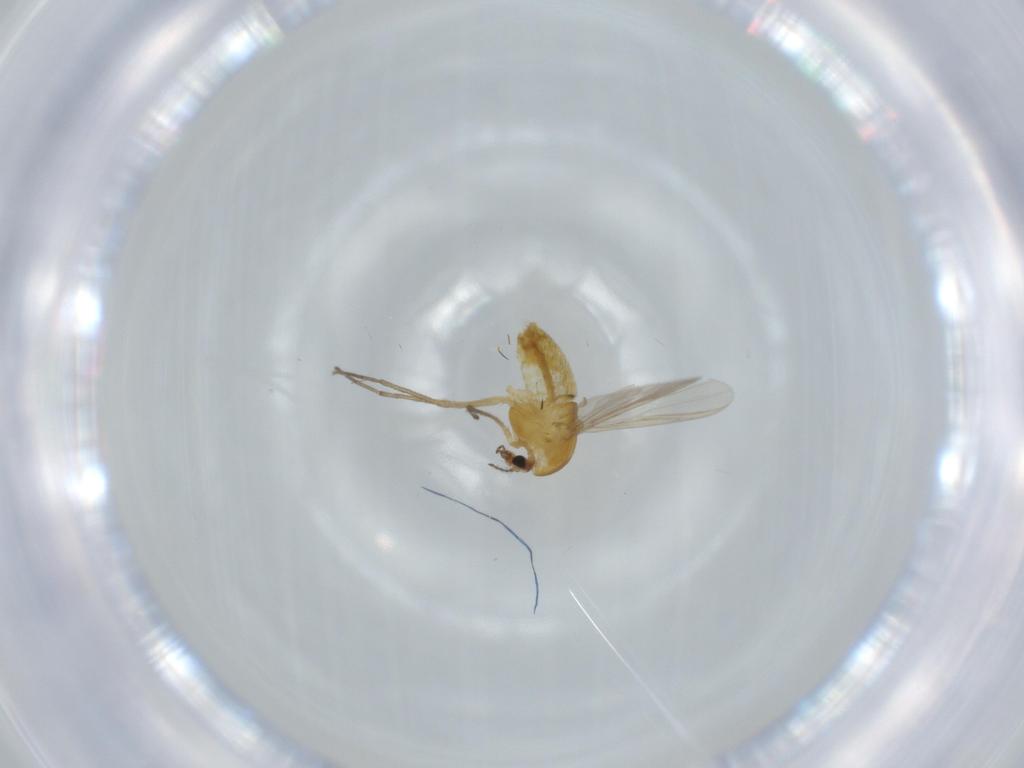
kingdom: Animalia
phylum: Arthropoda
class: Insecta
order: Diptera
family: Chironomidae
